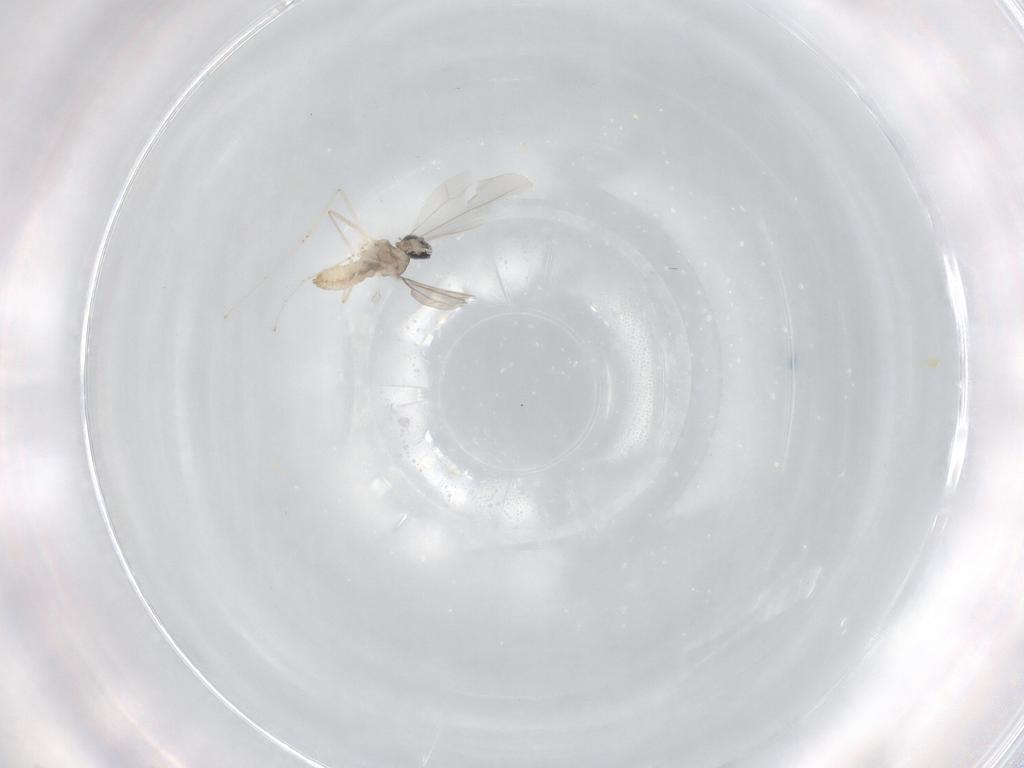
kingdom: Animalia
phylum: Arthropoda
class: Insecta
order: Diptera
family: Cecidomyiidae
